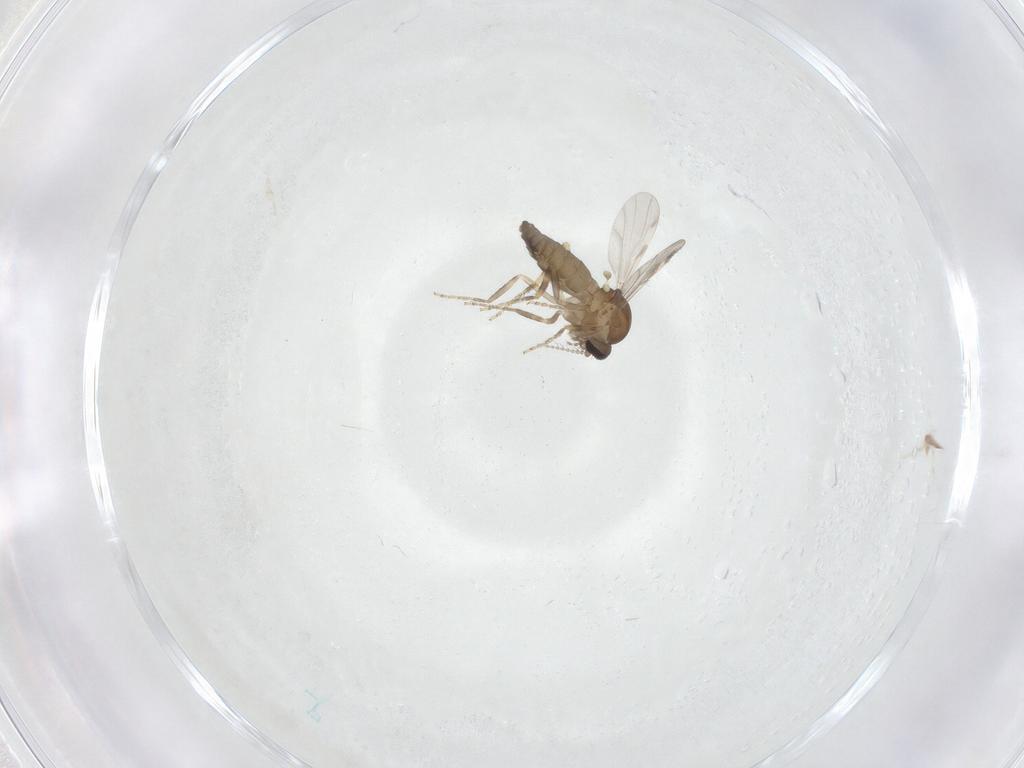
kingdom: Animalia
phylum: Arthropoda
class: Insecta
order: Diptera
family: Ceratopogonidae
